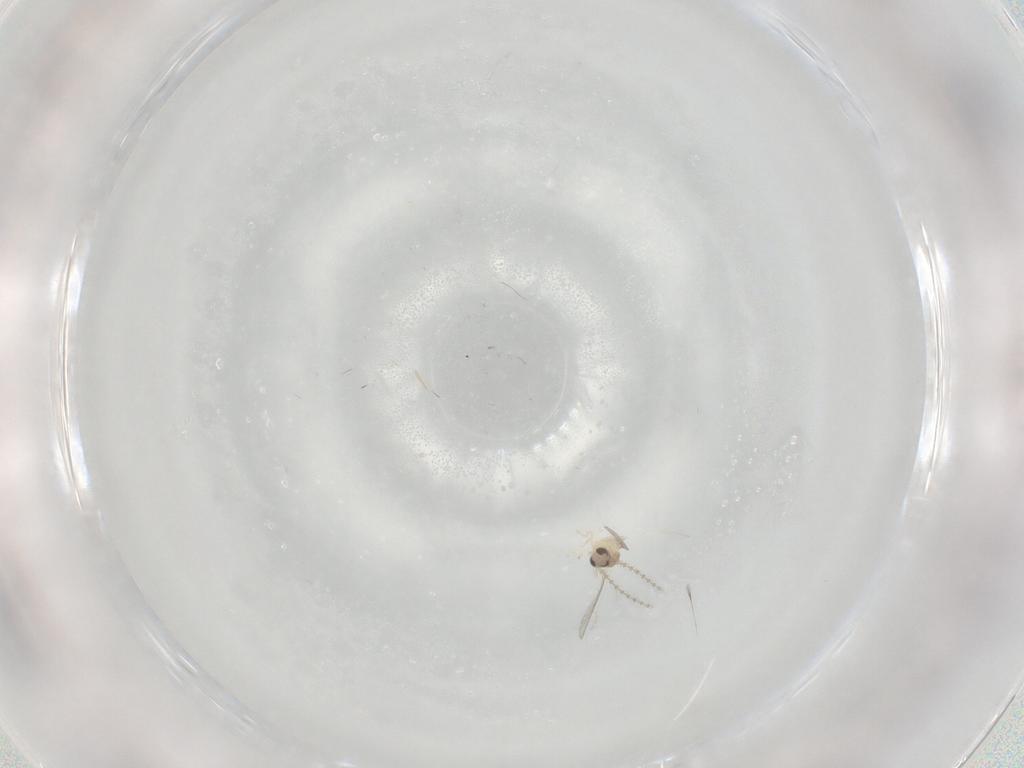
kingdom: Animalia
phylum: Arthropoda
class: Insecta
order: Diptera
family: Cecidomyiidae
